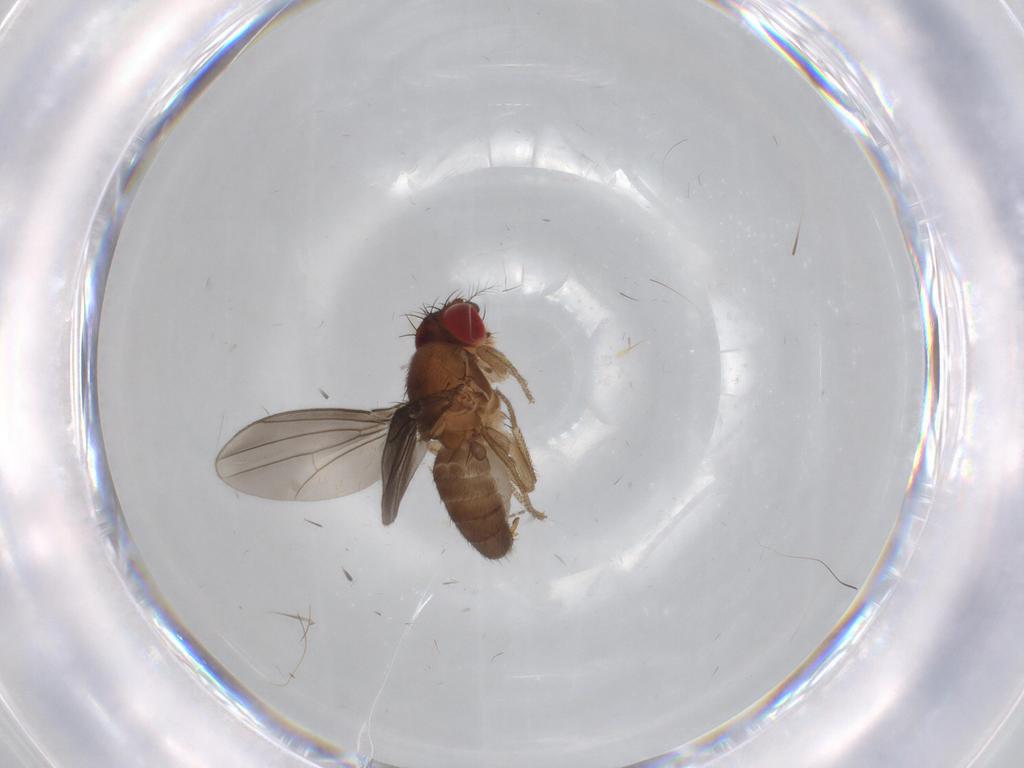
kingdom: Animalia
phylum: Arthropoda
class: Insecta
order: Diptera
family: Drosophilidae
